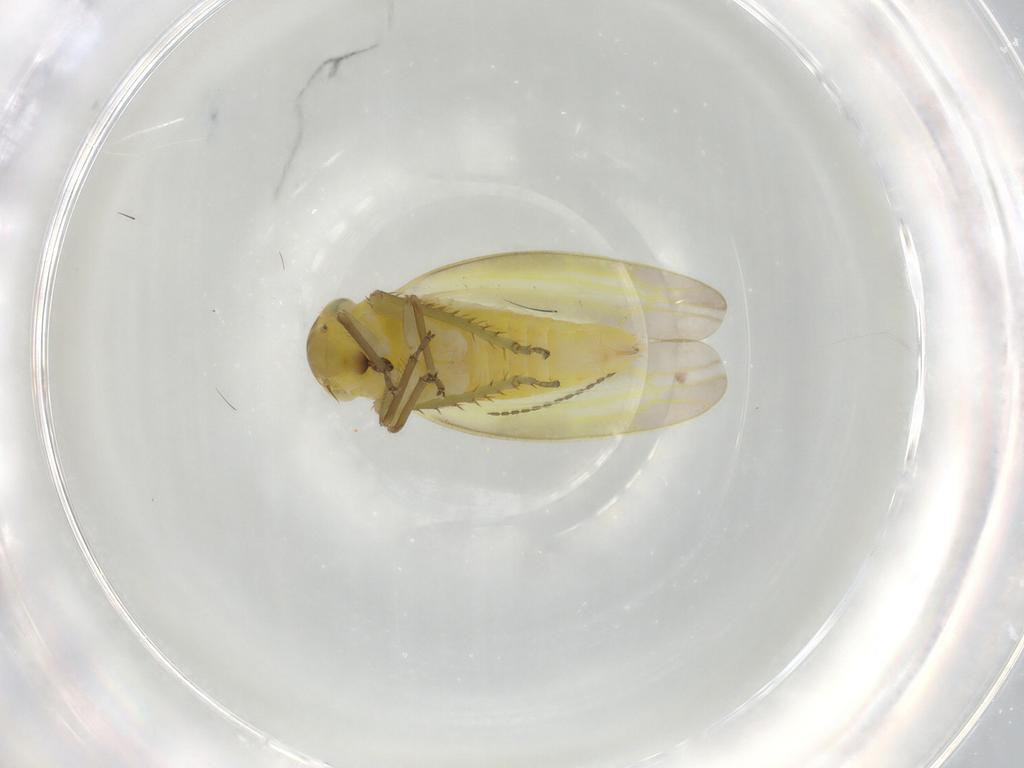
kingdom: Animalia
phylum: Arthropoda
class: Insecta
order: Hemiptera
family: Cicadellidae
